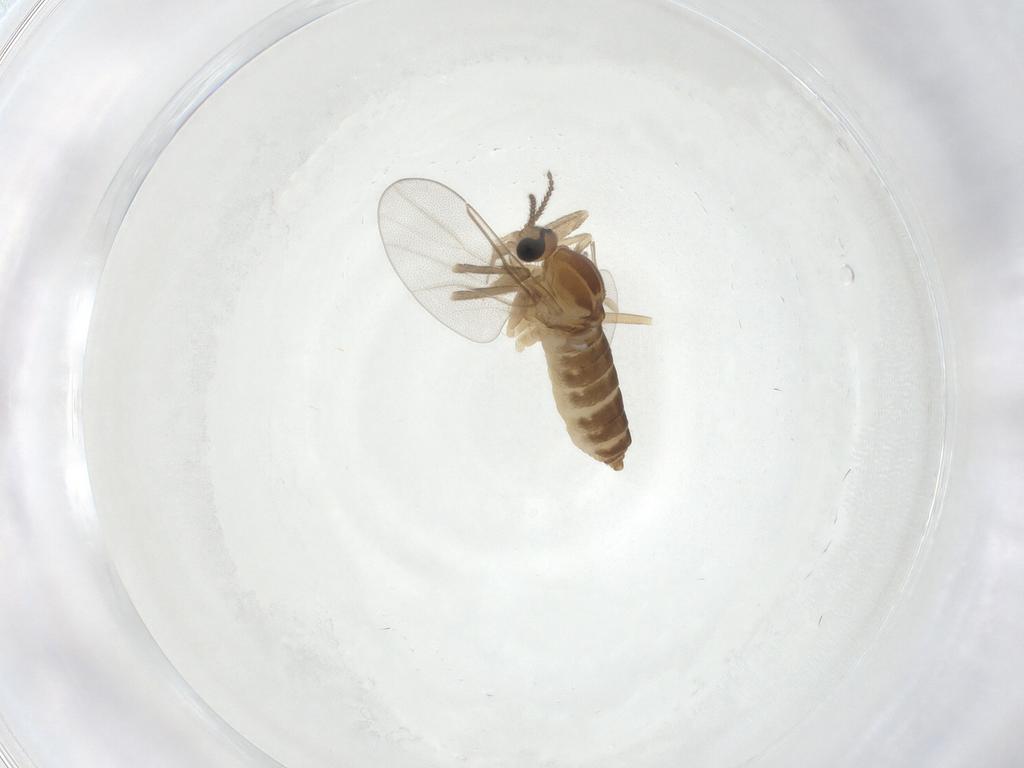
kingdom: Animalia
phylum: Arthropoda
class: Insecta
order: Diptera
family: Cecidomyiidae
